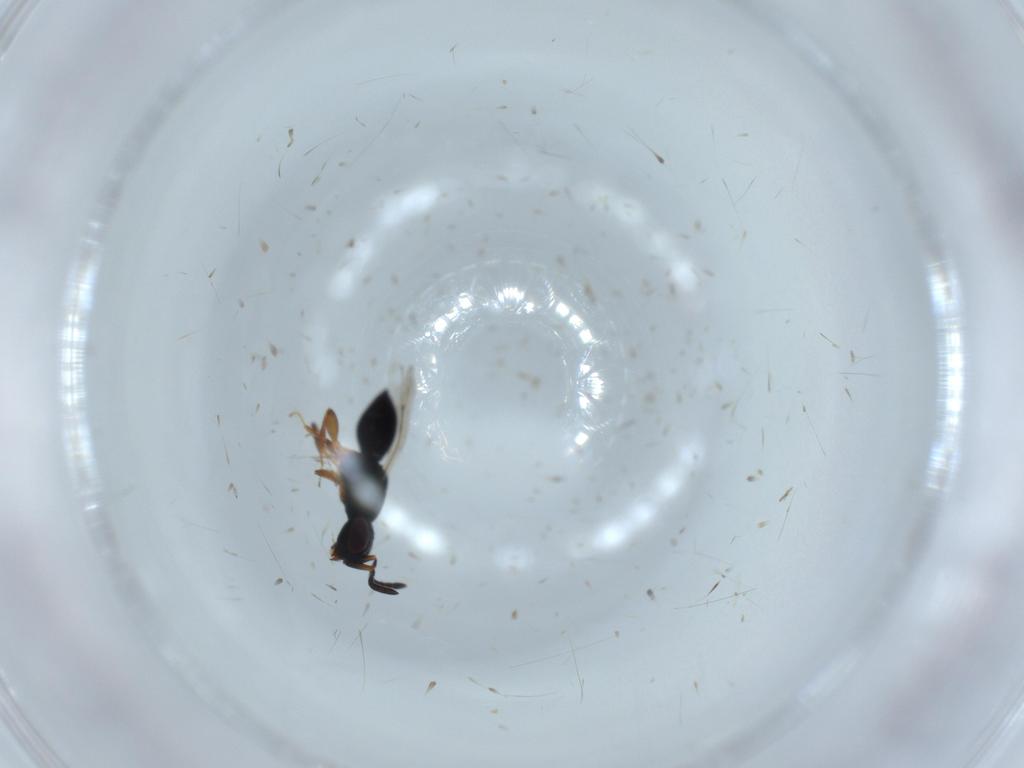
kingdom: Animalia
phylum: Arthropoda
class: Insecta
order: Hymenoptera
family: Ceraphronidae
